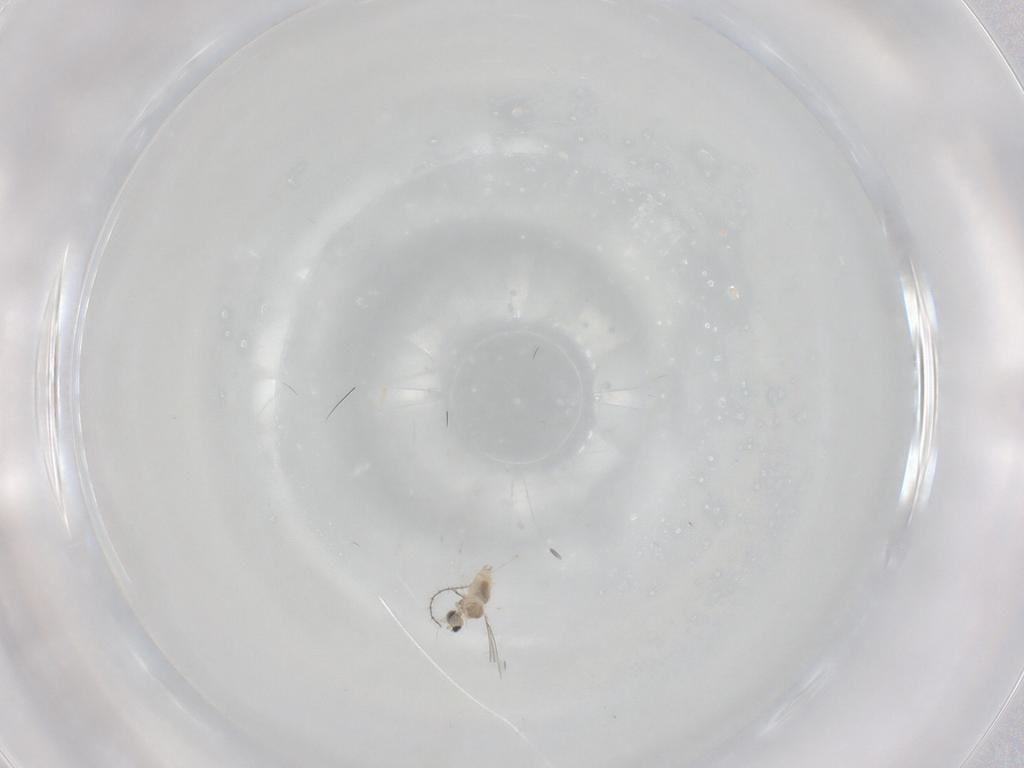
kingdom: Animalia
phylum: Arthropoda
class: Insecta
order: Diptera
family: Cecidomyiidae
